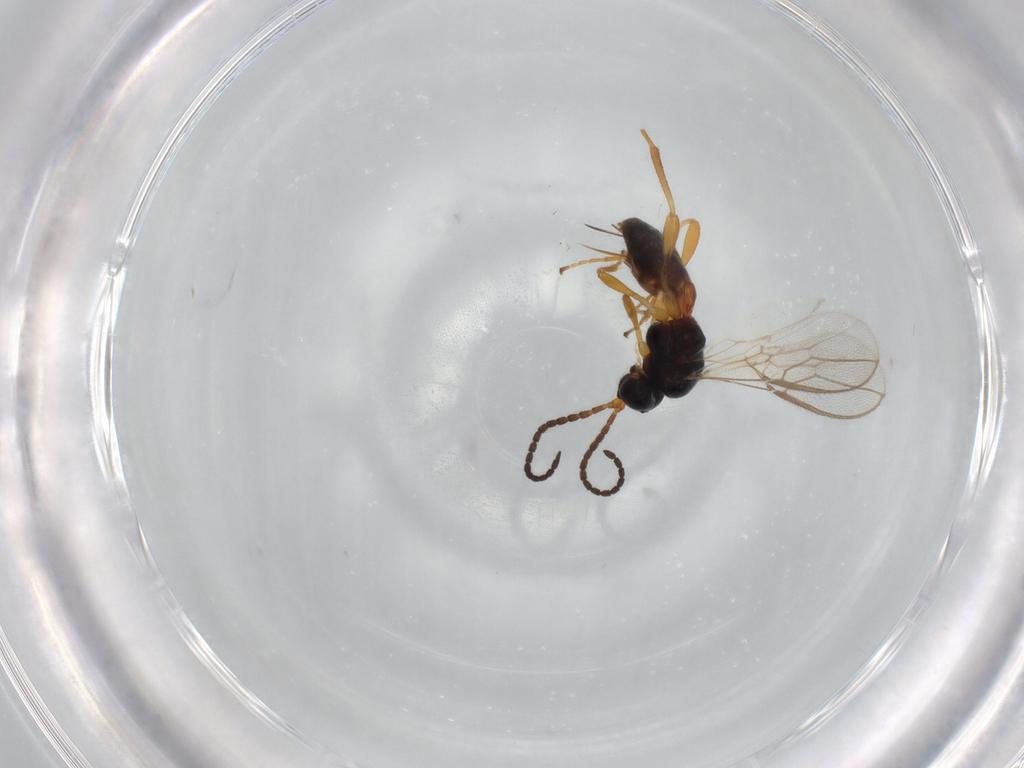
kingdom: Animalia
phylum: Arthropoda
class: Insecta
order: Hymenoptera
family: Braconidae
